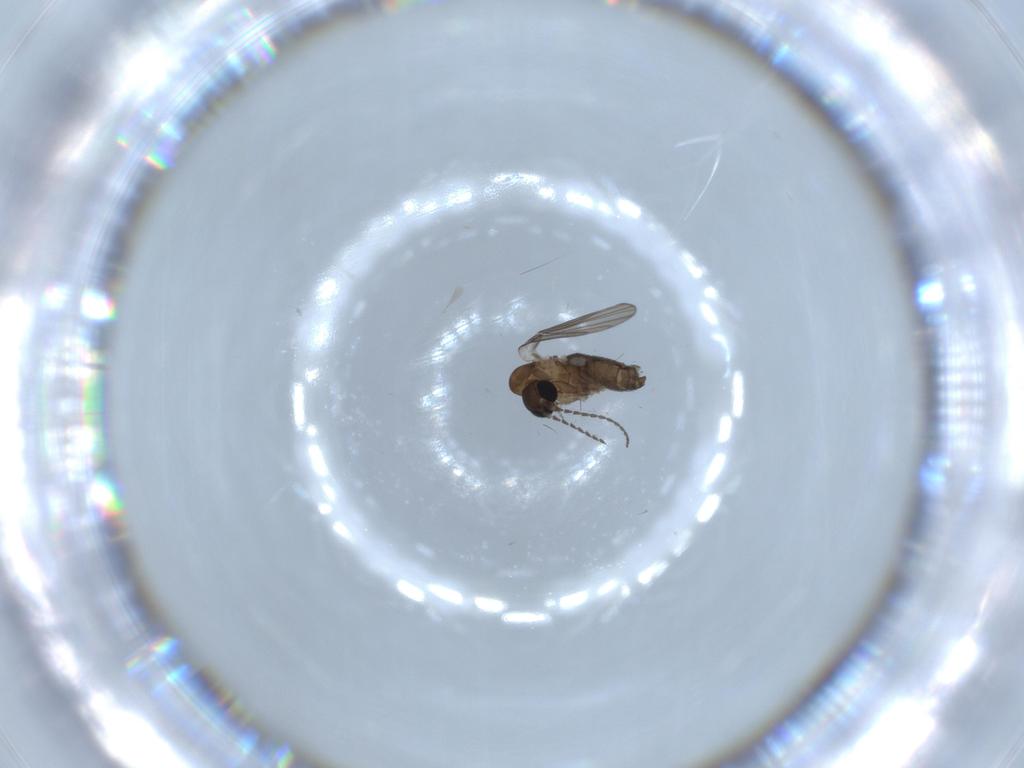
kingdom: Animalia
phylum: Arthropoda
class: Insecta
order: Diptera
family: Psychodidae
